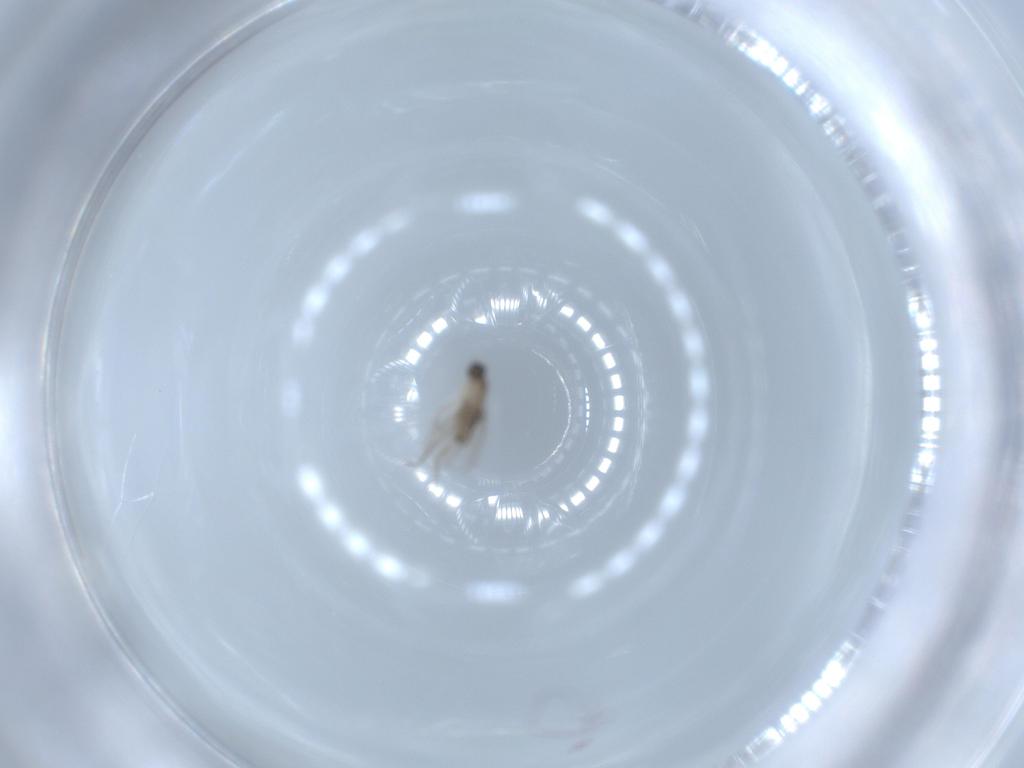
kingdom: Animalia
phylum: Arthropoda
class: Insecta
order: Diptera
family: Phoridae
